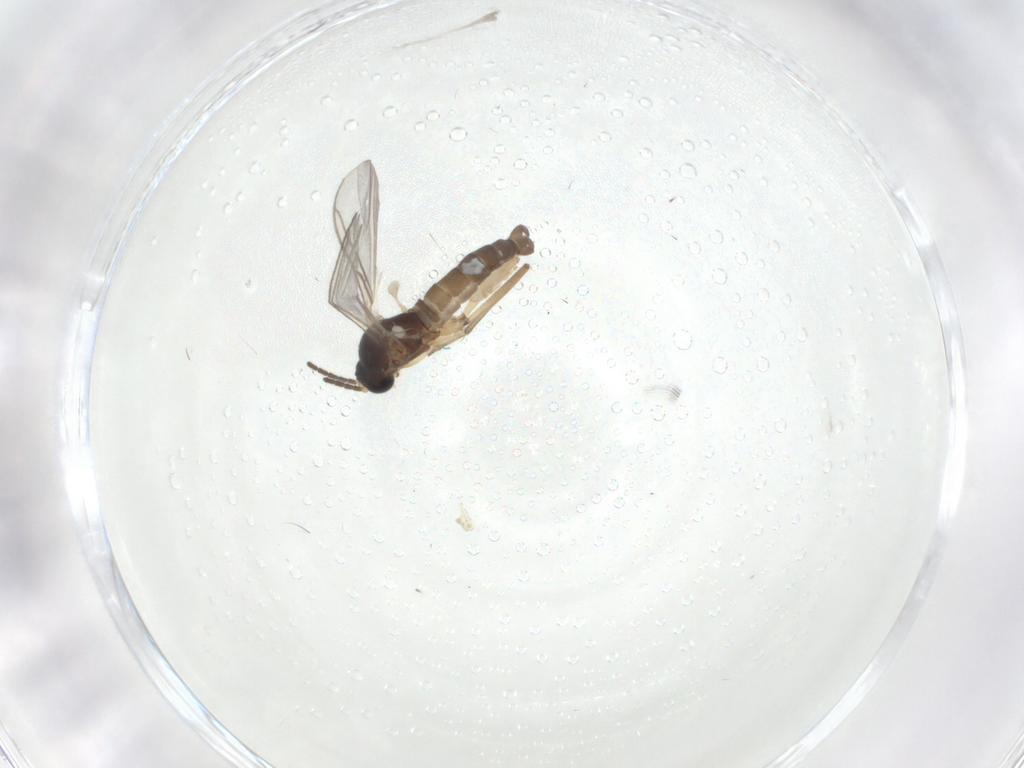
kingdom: Animalia
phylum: Arthropoda
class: Insecta
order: Diptera
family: Sciaridae
